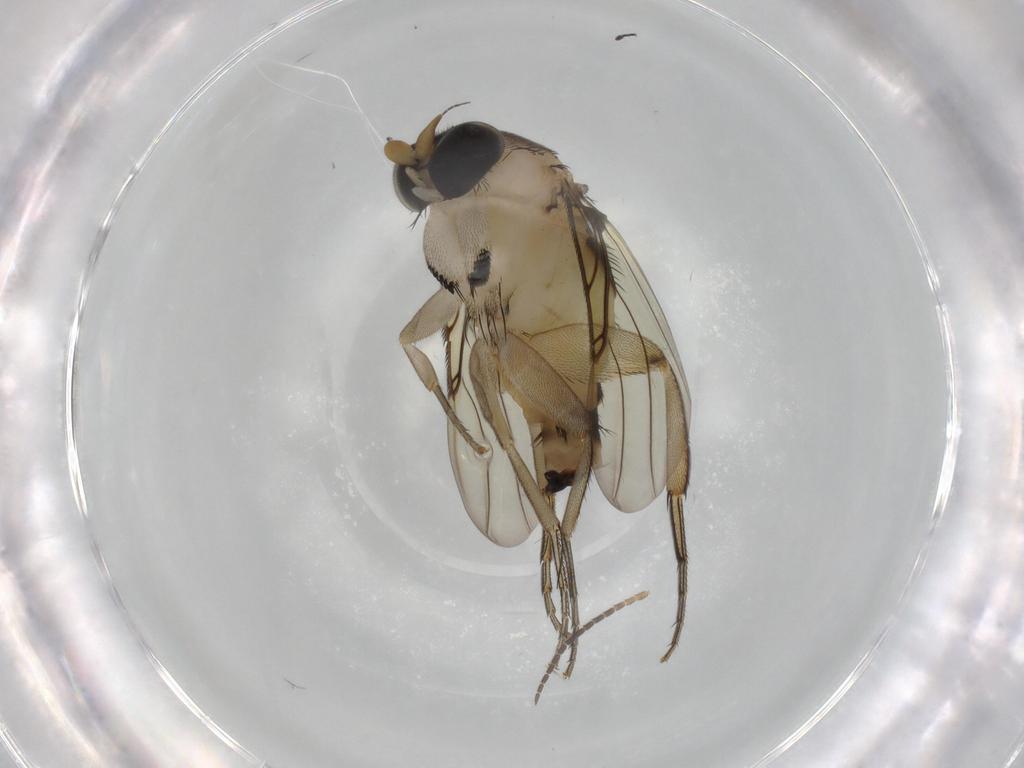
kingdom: Animalia
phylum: Arthropoda
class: Insecta
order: Diptera
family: Phoridae
